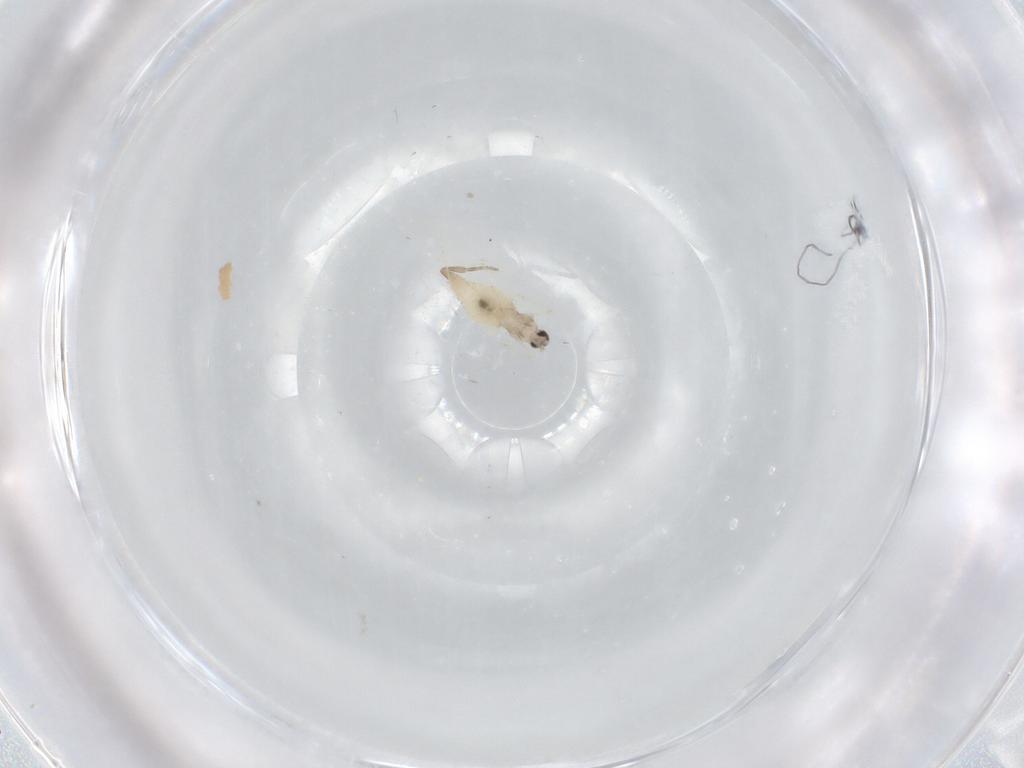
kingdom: Animalia
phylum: Arthropoda
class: Insecta
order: Diptera
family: Cecidomyiidae
